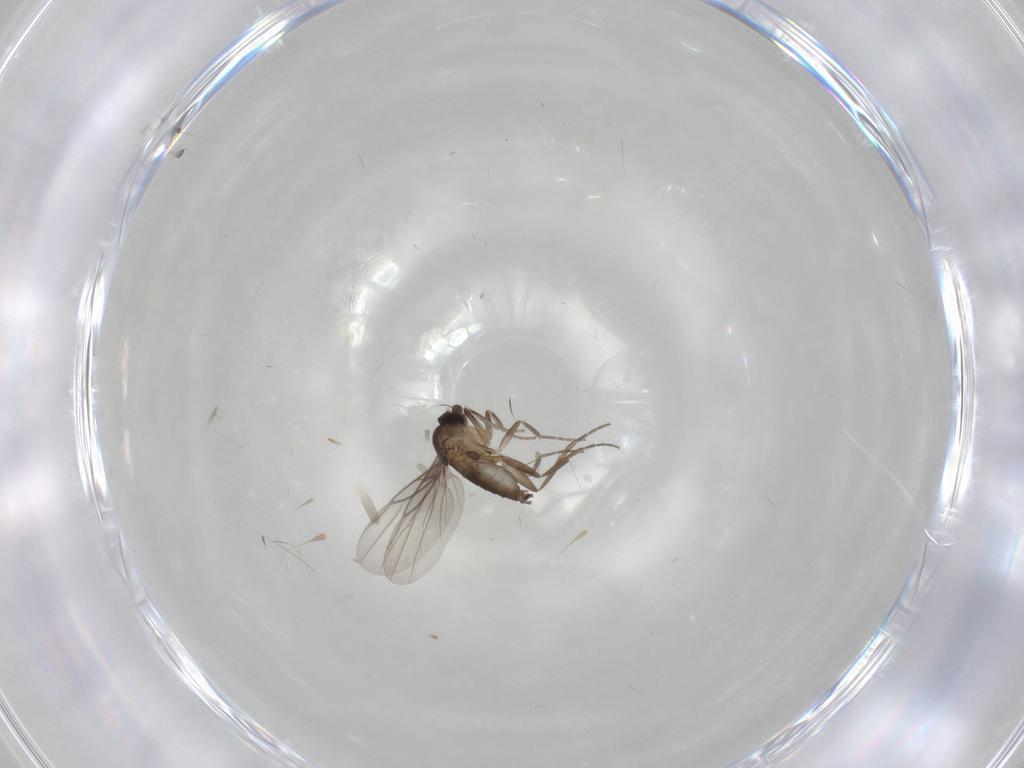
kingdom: Animalia
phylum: Arthropoda
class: Insecta
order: Diptera
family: Phoridae
